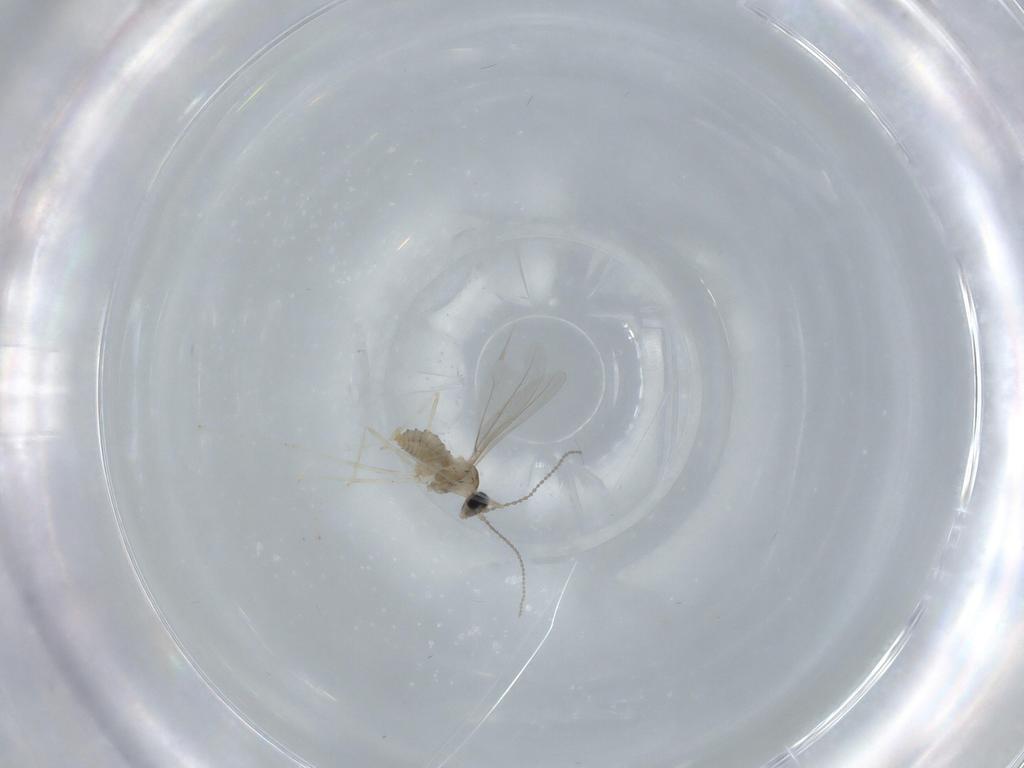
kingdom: Animalia
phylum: Arthropoda
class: Insecta
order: Diptera
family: Cecidomyiidae
